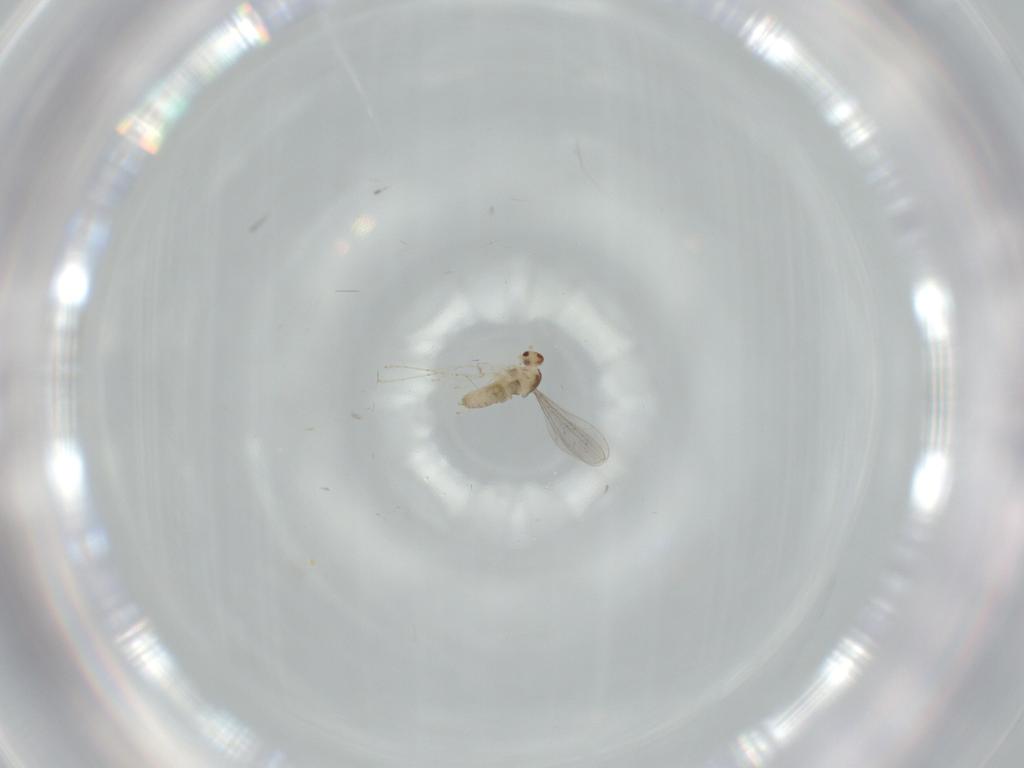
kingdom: Animalia
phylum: Arthropoda
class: Insecta
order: Diptera
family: Cecidomyiidae
